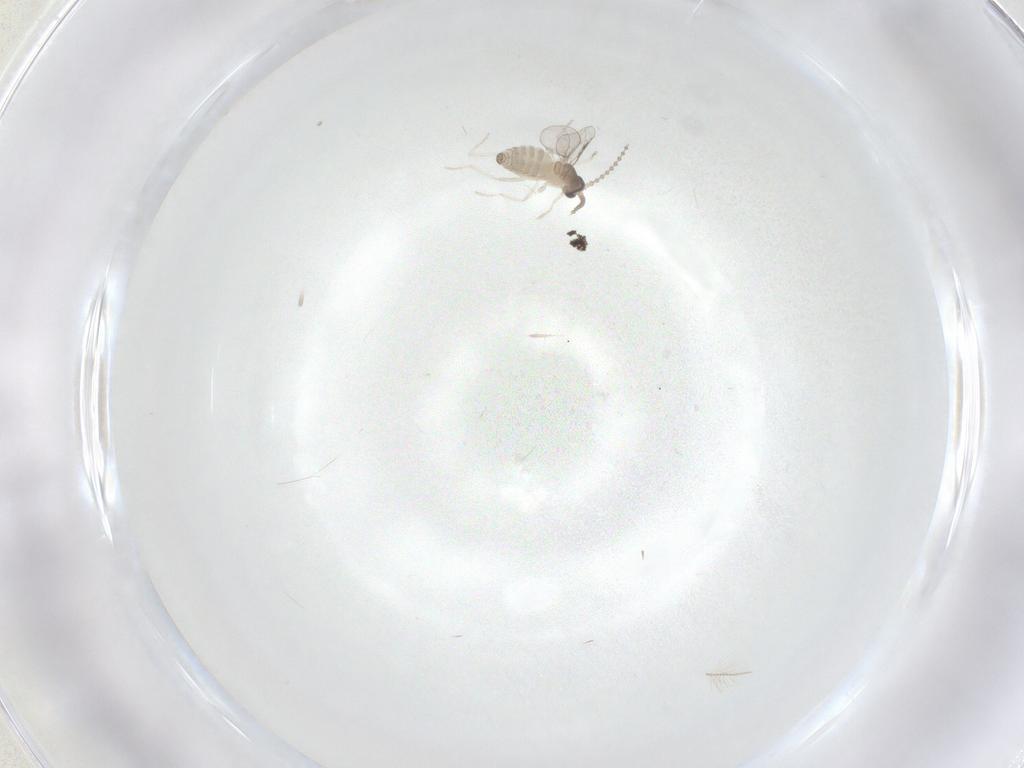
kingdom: Animalia
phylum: Arthropoda
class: Insecta
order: Diptera
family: Cecidomyiidae
